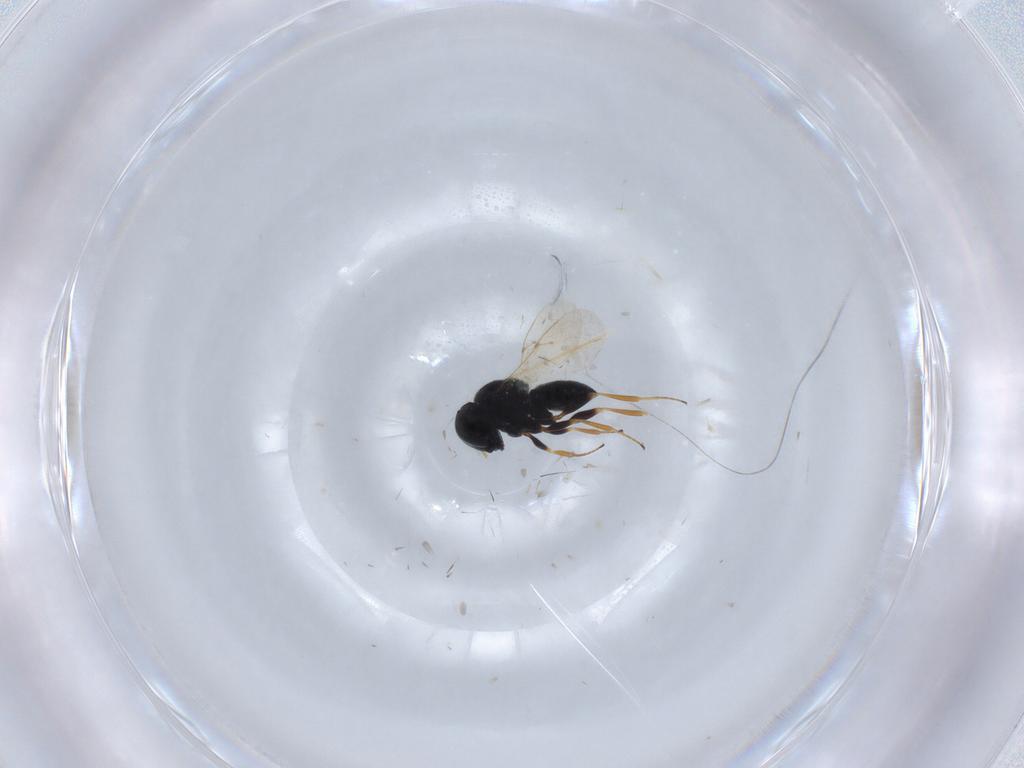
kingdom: Animalia
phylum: Arthropoda
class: Insecta
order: Coleoptera
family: Curculionidae
